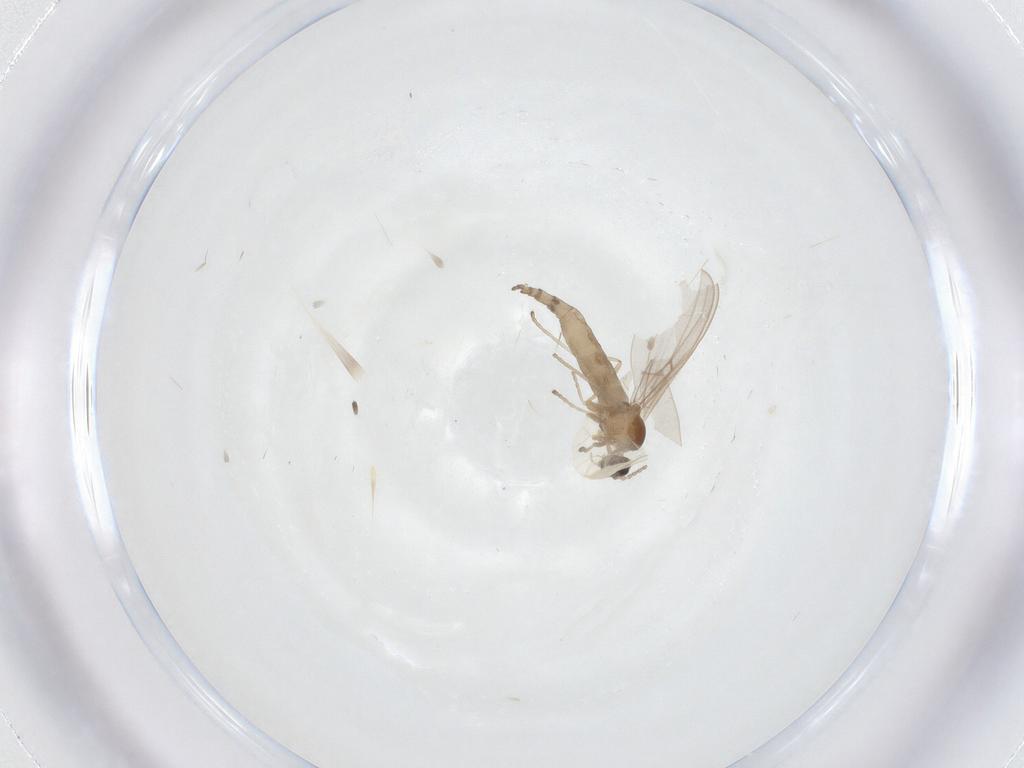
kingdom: Animalia
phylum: Arthropoda
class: Insecta
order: Diptera
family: Cecidomyiidae
